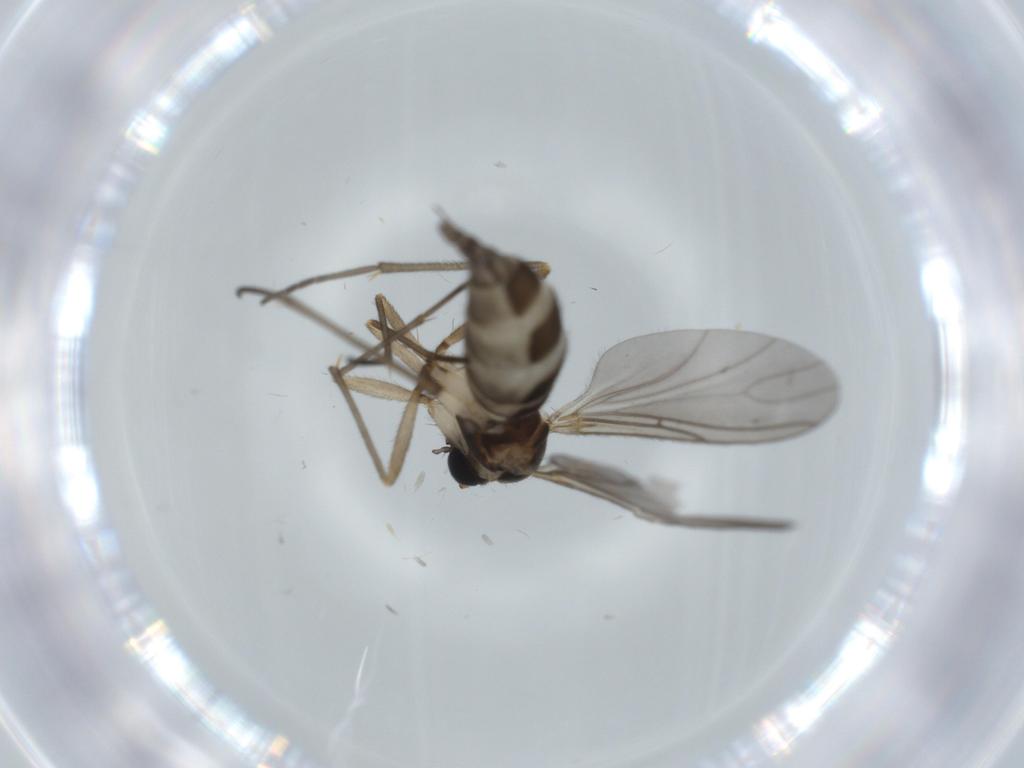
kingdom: Animalia
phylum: Arthropoda
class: Insecta
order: Diptera
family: Sciaridae
